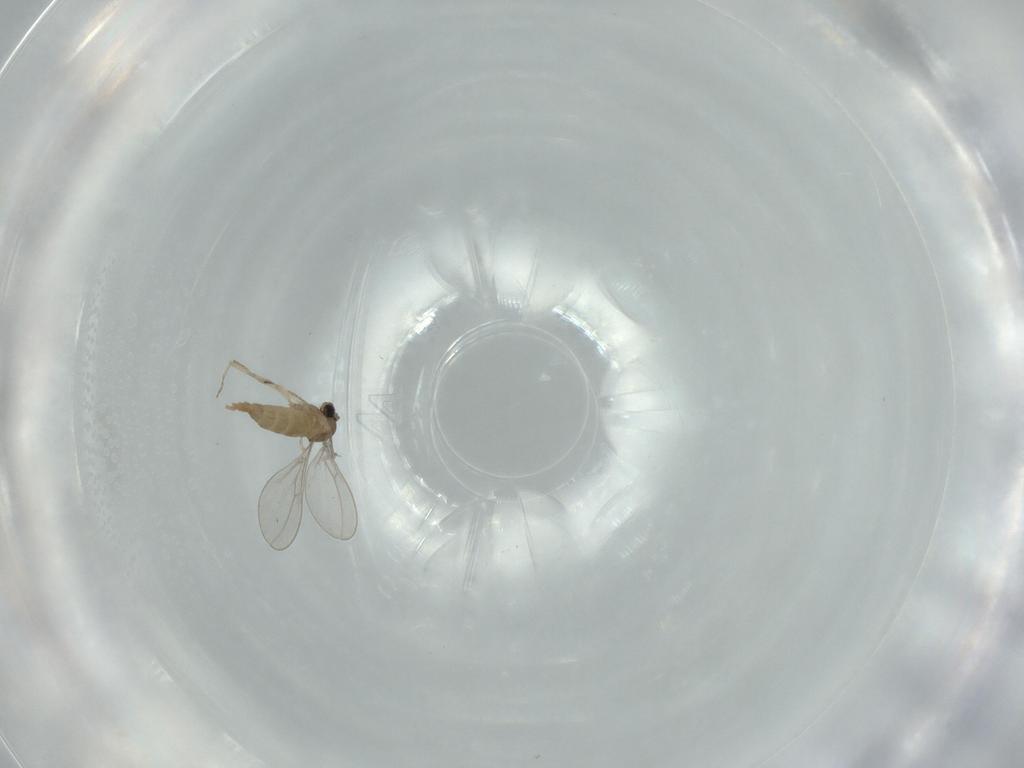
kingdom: Animalia
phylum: Arthropoda
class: Insecta
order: Diptera
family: Cecidomyiidae
